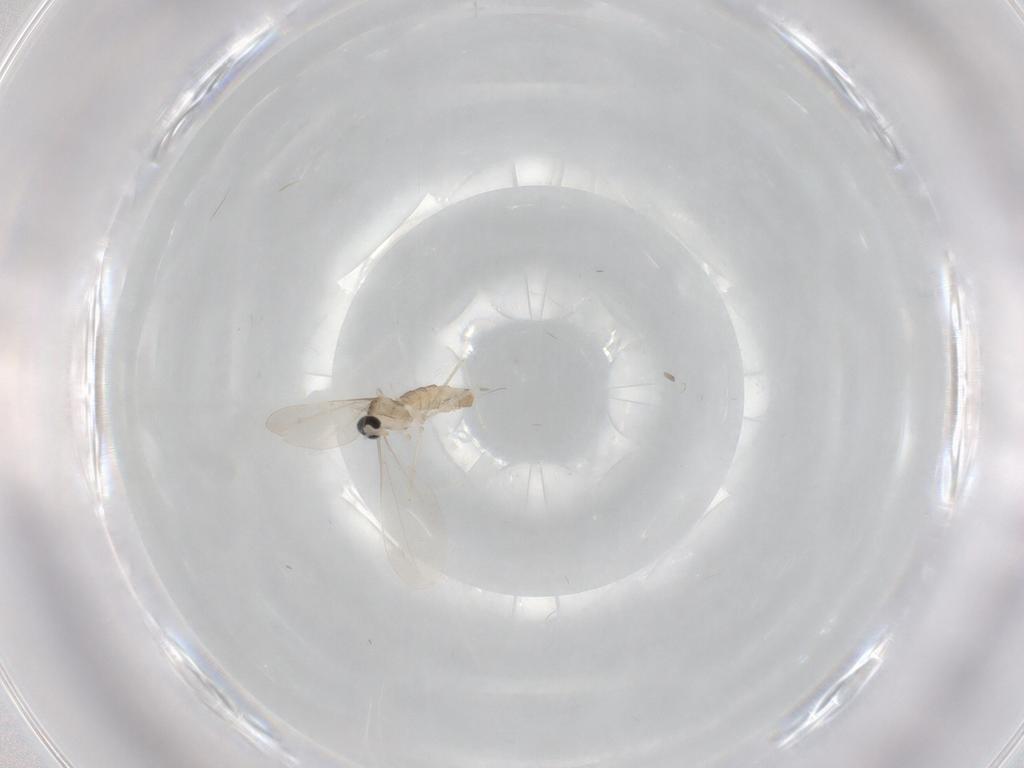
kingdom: Animalia
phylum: Arthropoda
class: Insecta
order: Diptera
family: Cecidomyiidae
